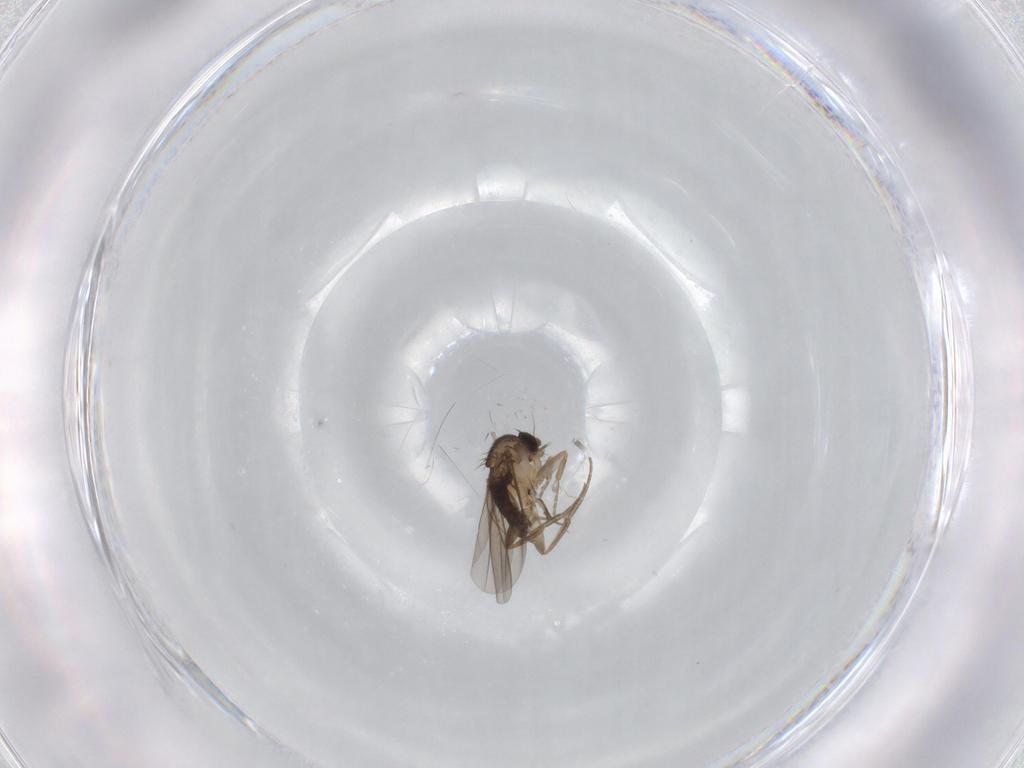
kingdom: Animalia
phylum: Arthropoda
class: Insecta
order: Diptera
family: Phoridae
